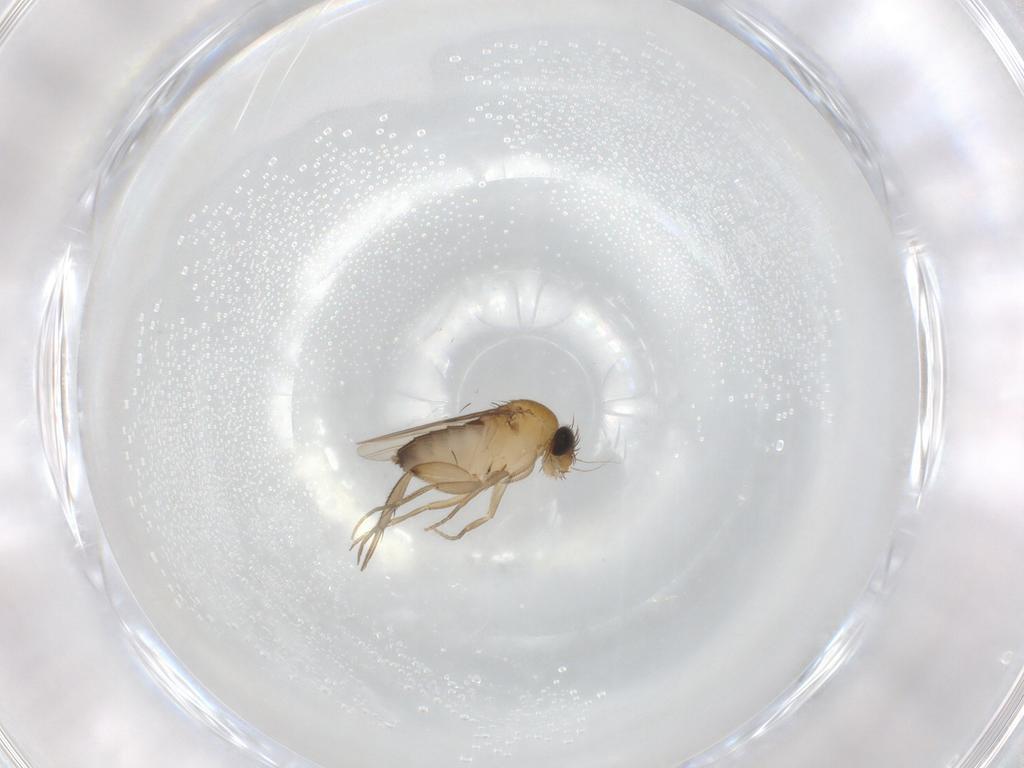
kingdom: Animalia
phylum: Arthropoda
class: Insecta
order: Diptera
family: Phoridae
